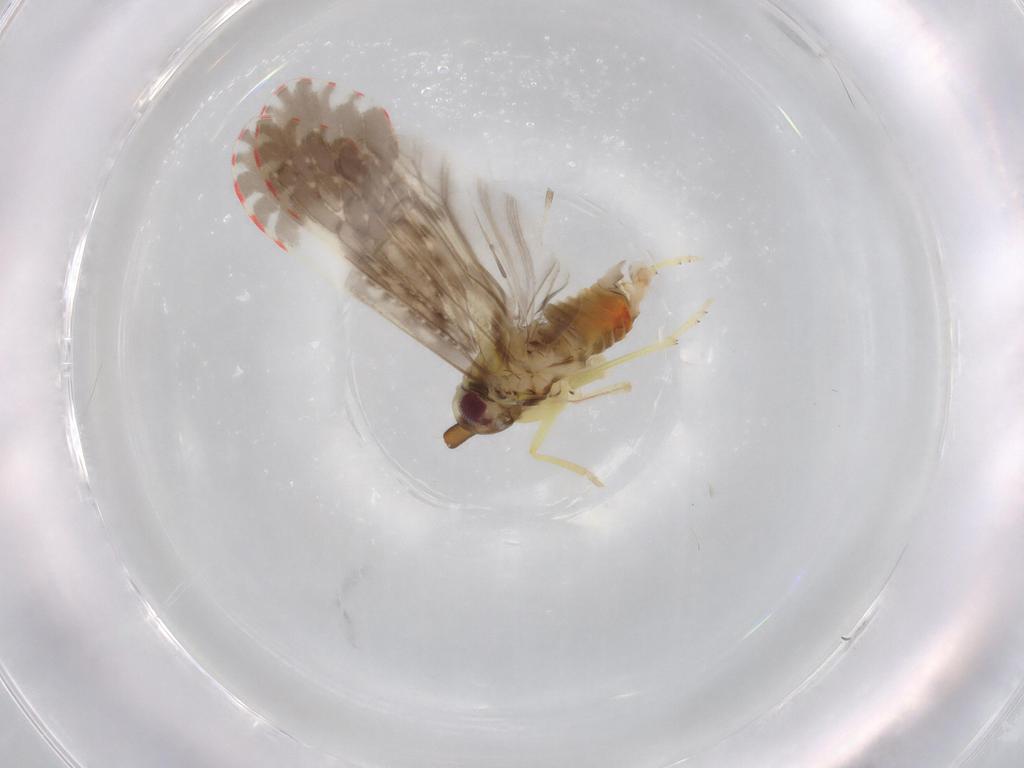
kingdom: Animalia
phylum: Arthropoda
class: Insecta
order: Hemiptera
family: Derbidae
